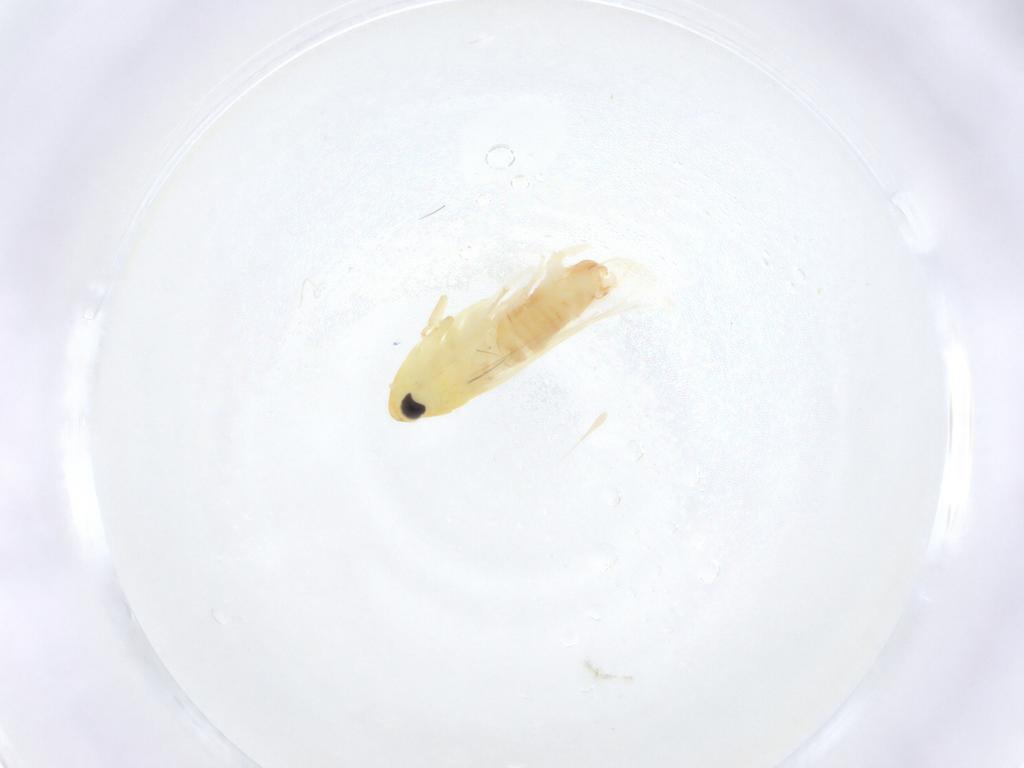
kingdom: Animalia
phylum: Arthropoda
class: Insecta
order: Hemiptera
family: Cicadellidae
